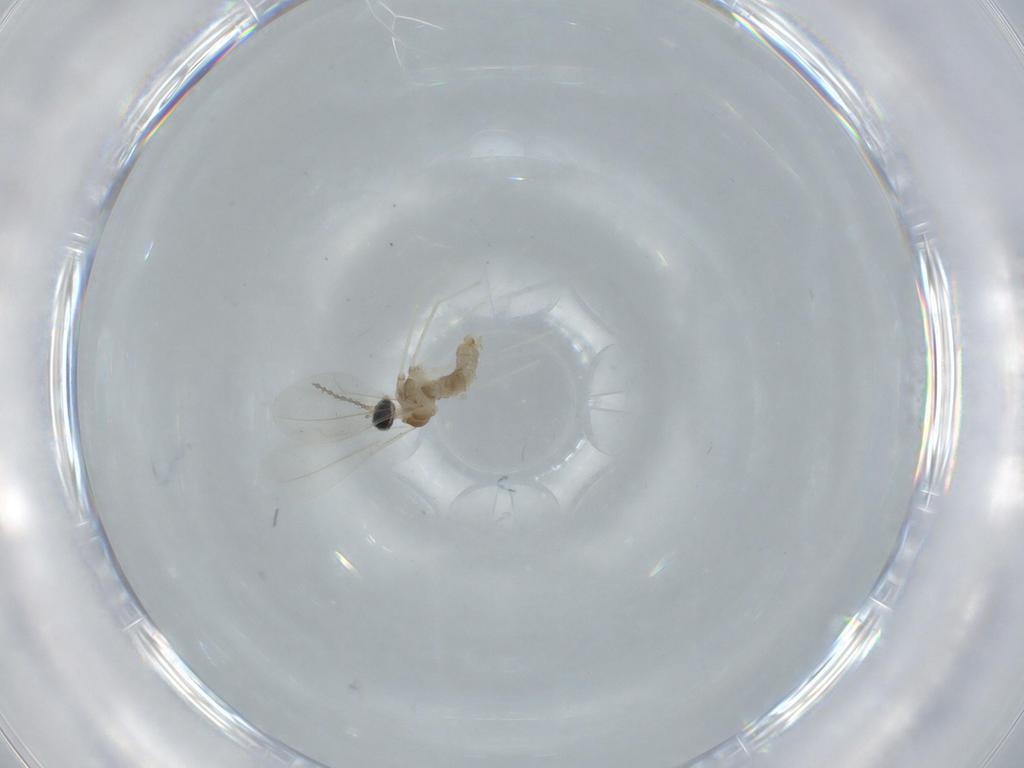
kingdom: Animalia
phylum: Arthropoda
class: Insecta
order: Diptera
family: Cecidomyiidae
